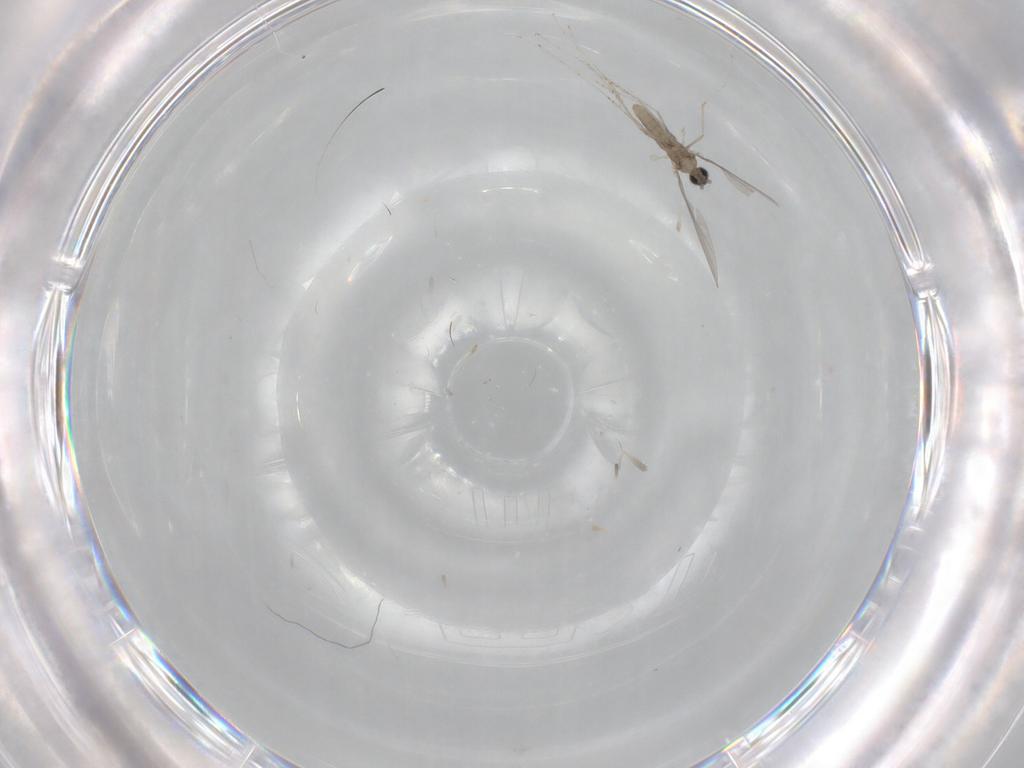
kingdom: Animalia
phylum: Arthropoda
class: Insecta
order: Diptera
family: Cecidomyiidae
